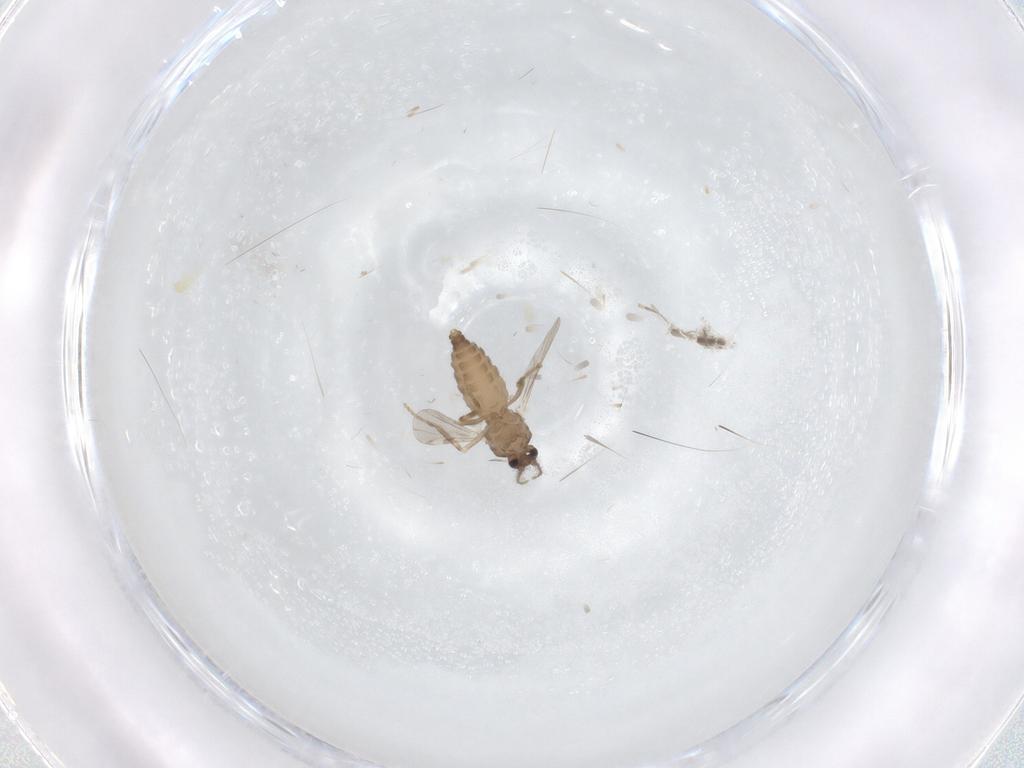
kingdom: Animalia
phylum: Arthropoda
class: Insecta
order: Diptera
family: Ceratopogonidae
